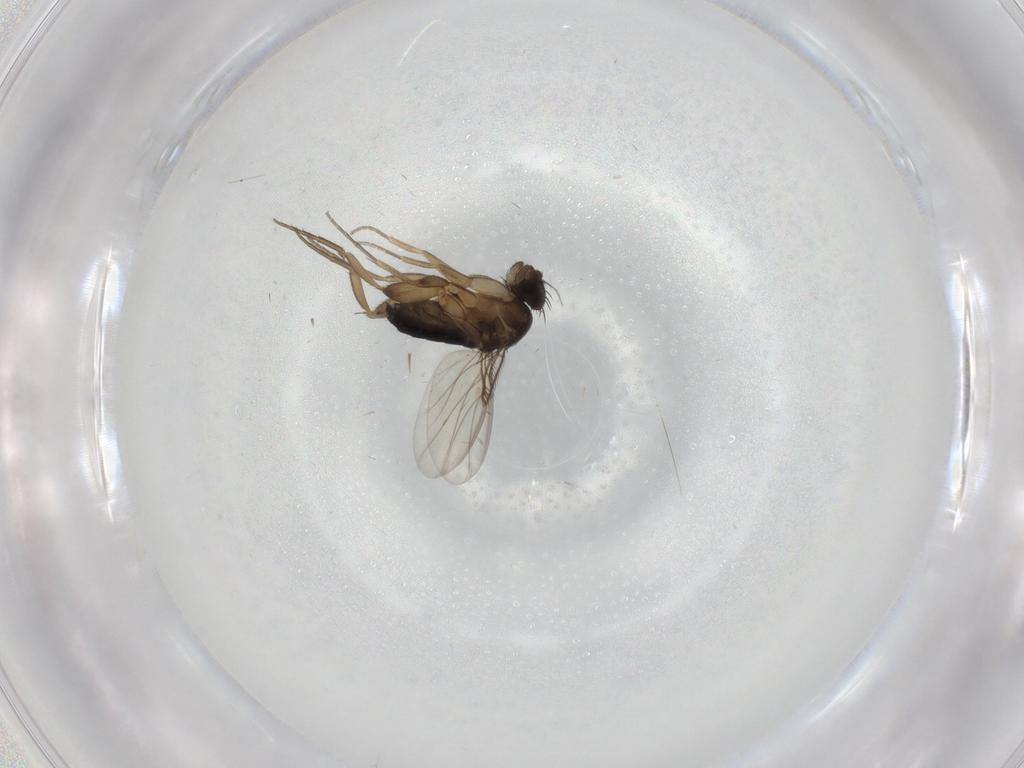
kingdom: Animalia
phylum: Arthropoda
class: Insecta
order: Diptera
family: Phoridae
